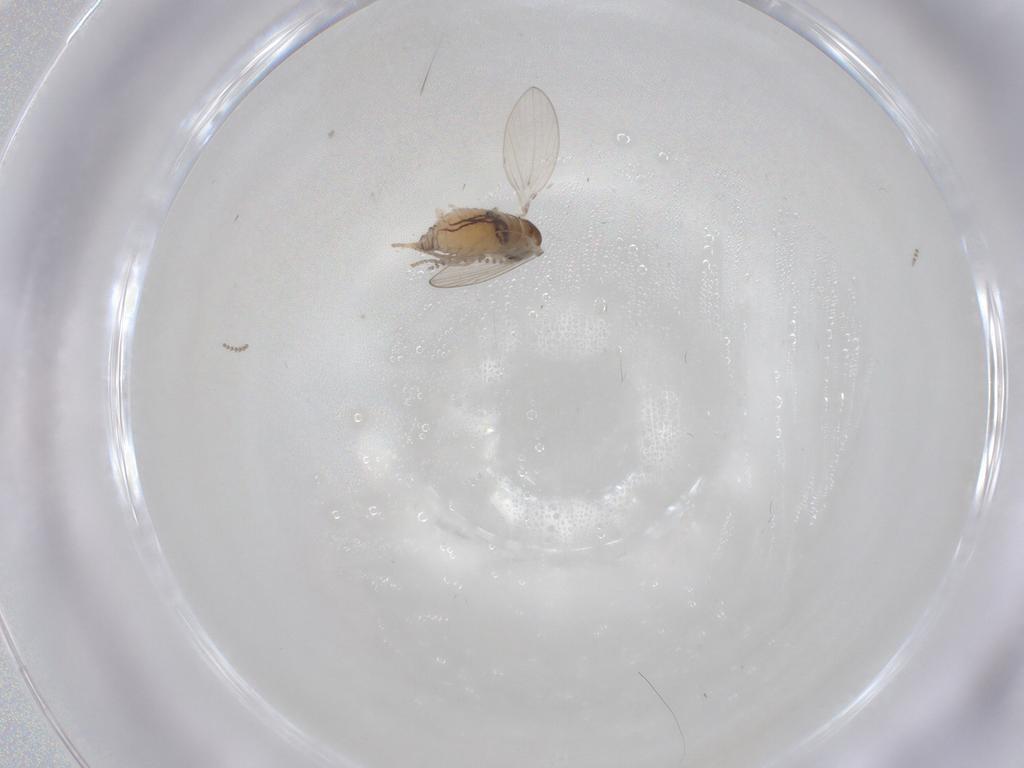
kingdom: Animalia
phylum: Arthropoda
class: Insecta
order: Diptera
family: Psychodidae
